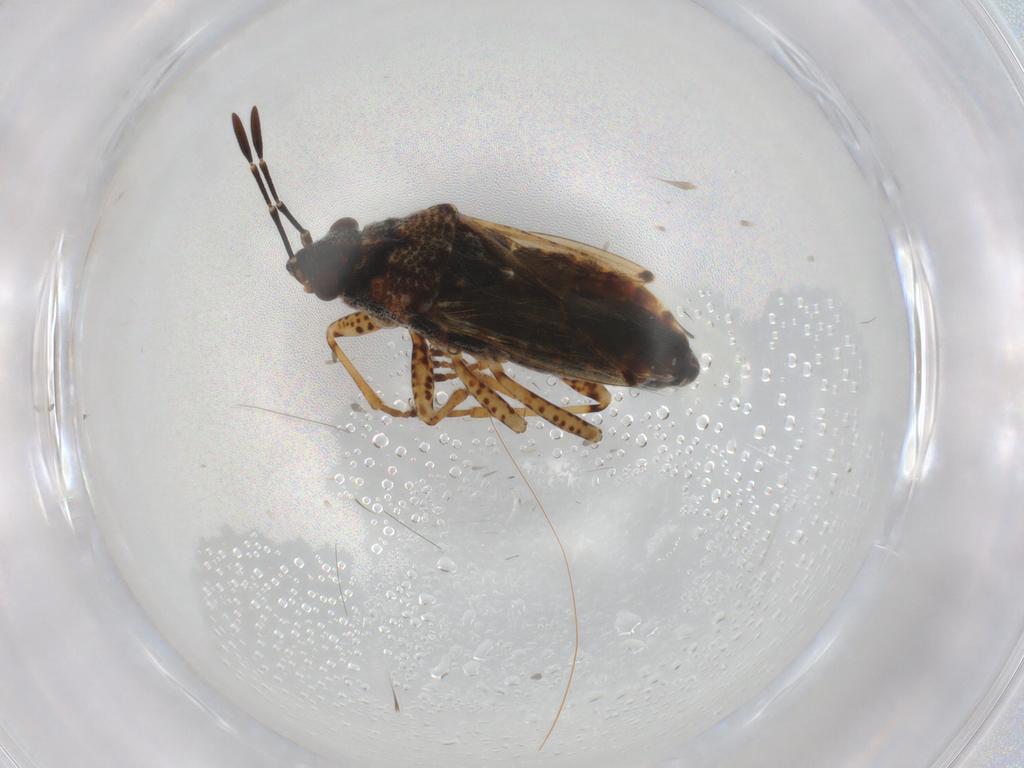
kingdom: Animalia
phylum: Arthropoda
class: Insecta
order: Hemiptera
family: Lygaeidae
